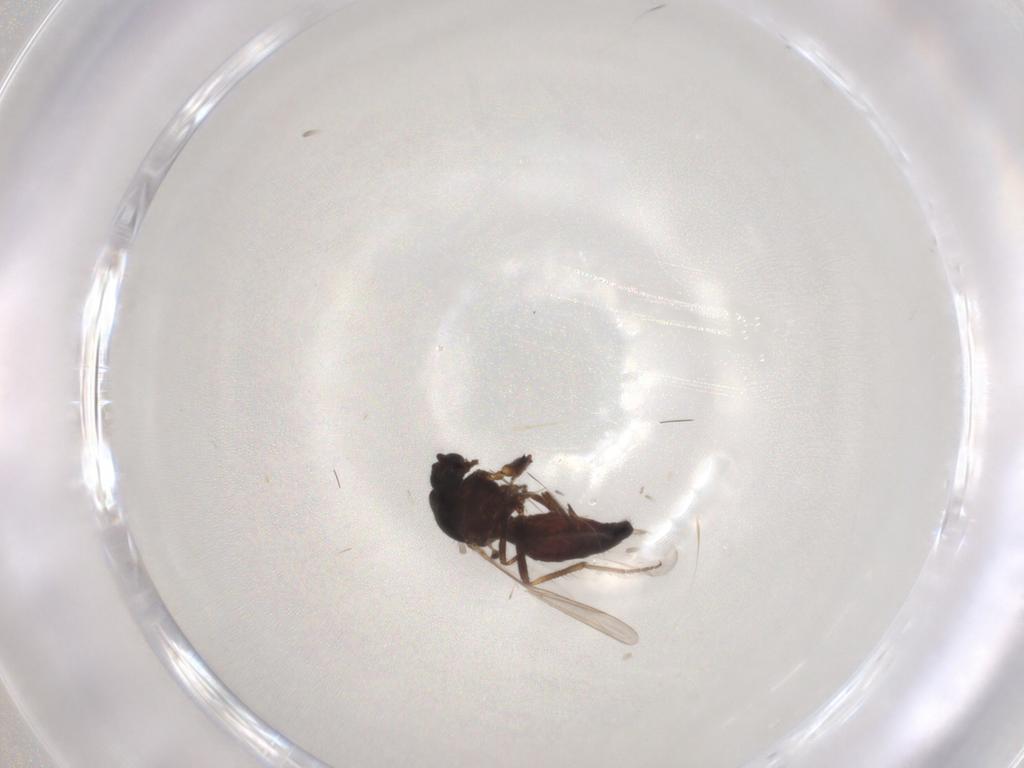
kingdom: Animalia
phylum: Arthropoda
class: Insecta
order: Diptera
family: Ceratopogonidae
